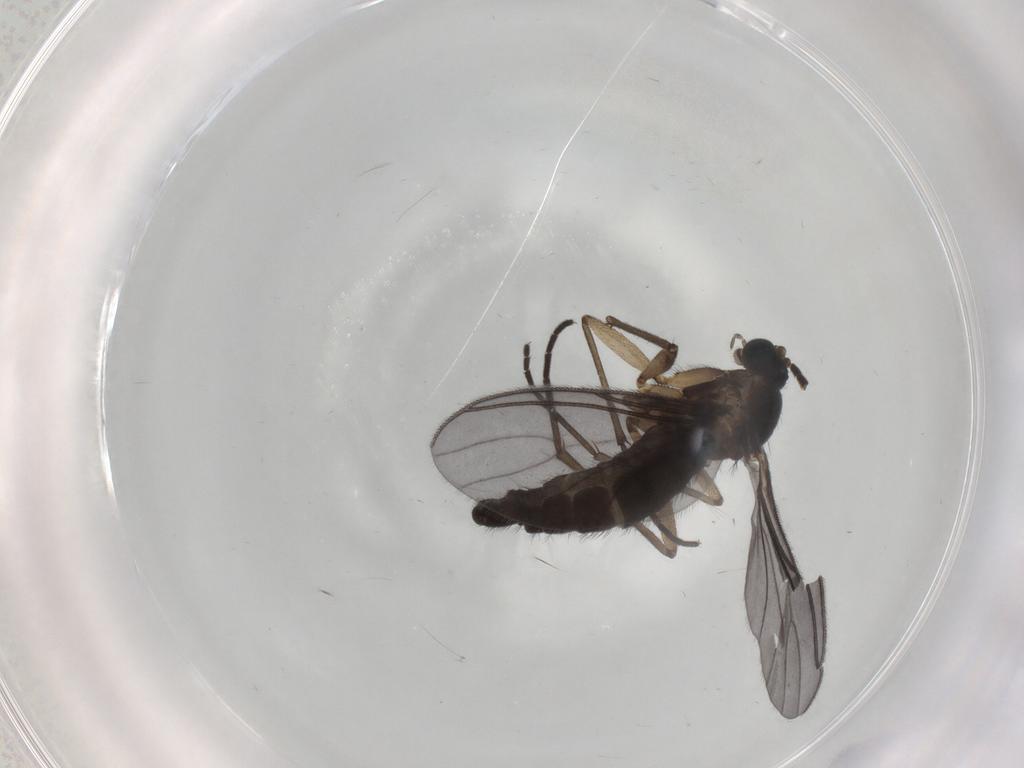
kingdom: Animalia
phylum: Arthropoda
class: Insecta
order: Diptera
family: Sciaridae
